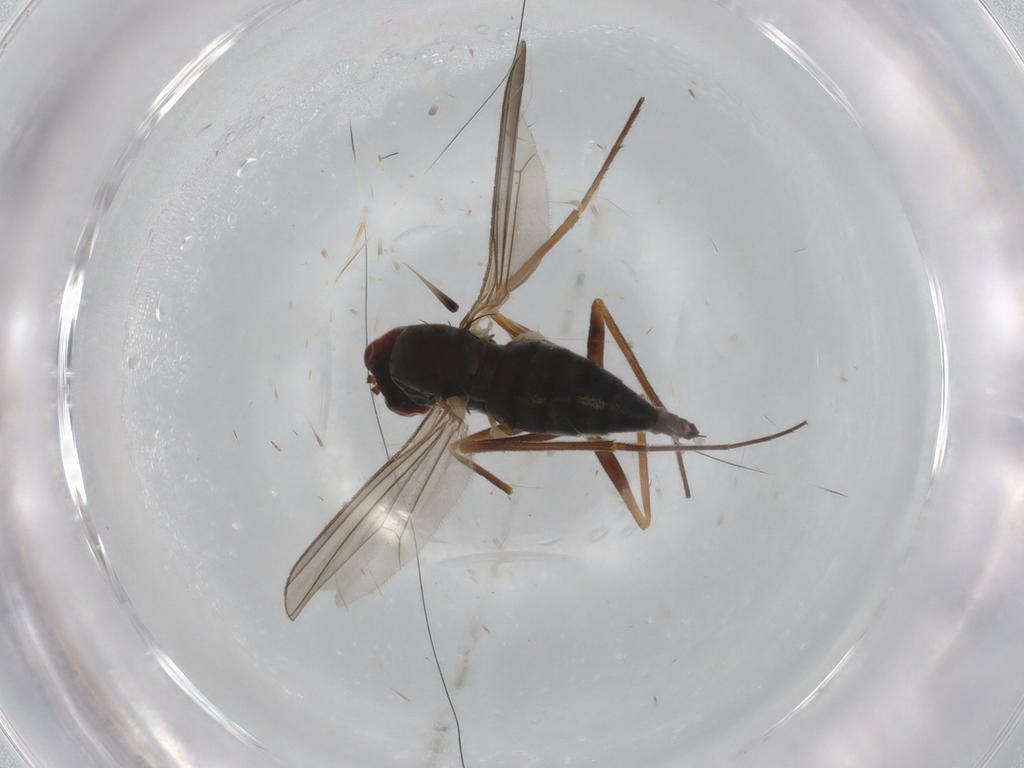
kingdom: Animalia
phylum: Arthropoda
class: Insecta
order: Diptera
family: Dolichopodidae
